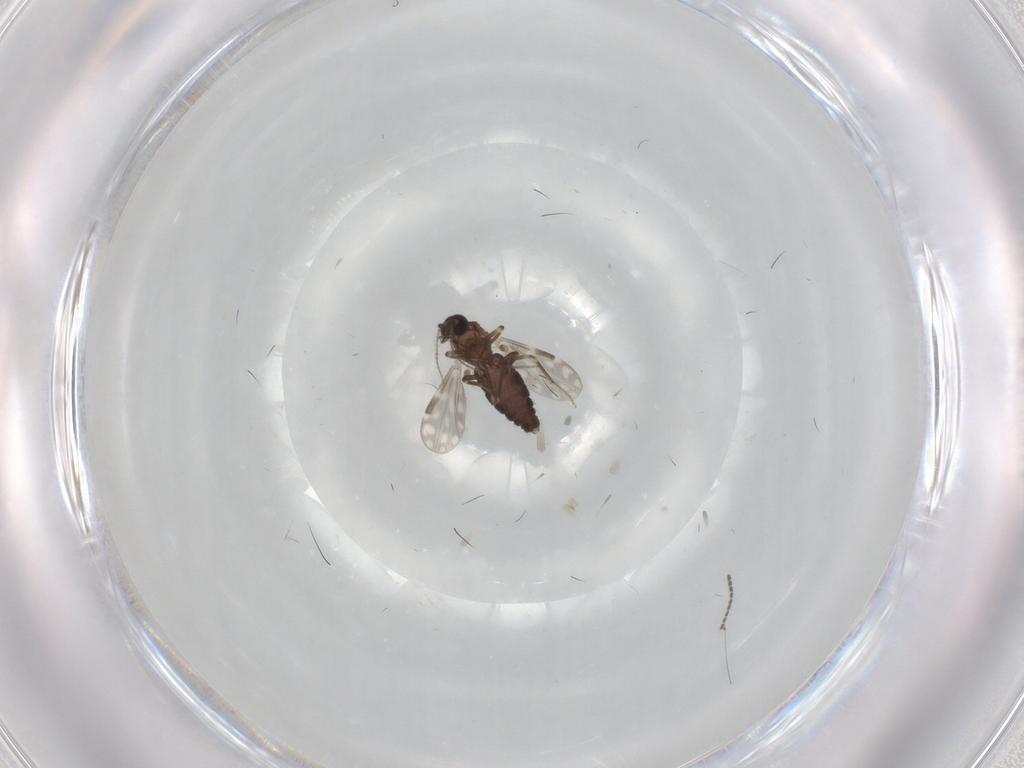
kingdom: Animalia
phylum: Arthropoda
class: Insecta
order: Diptera
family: Sciaridae
